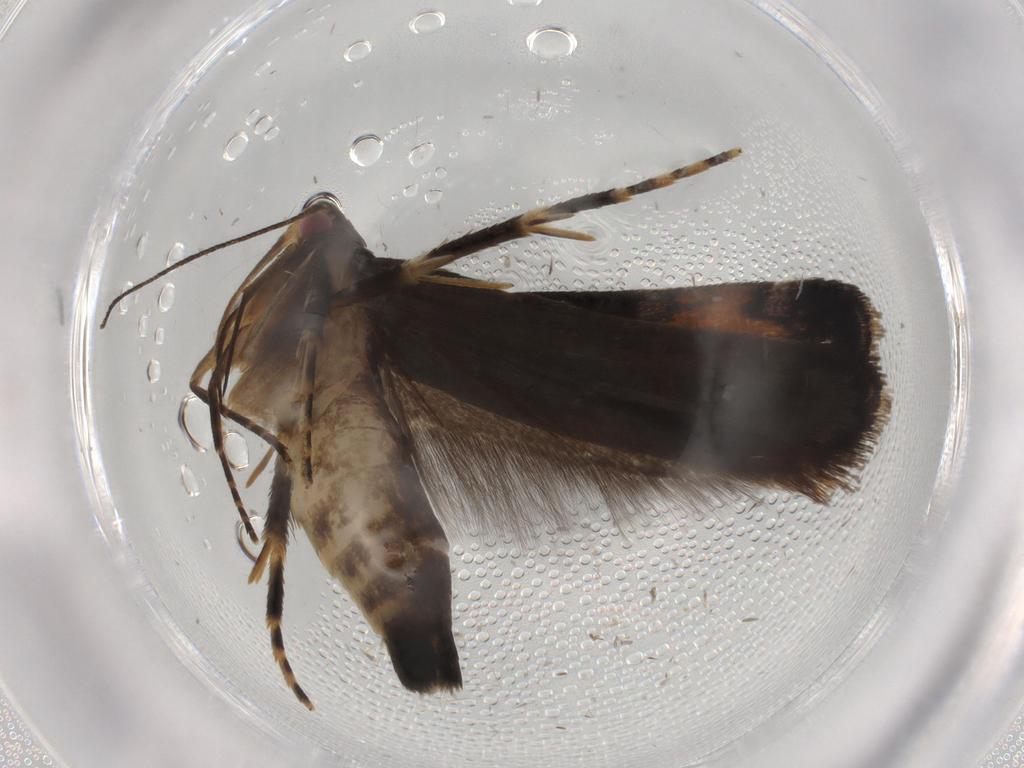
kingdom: Animalia
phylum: Arthropoda
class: Insecta
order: Lepidoptera
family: Gelechiidae
